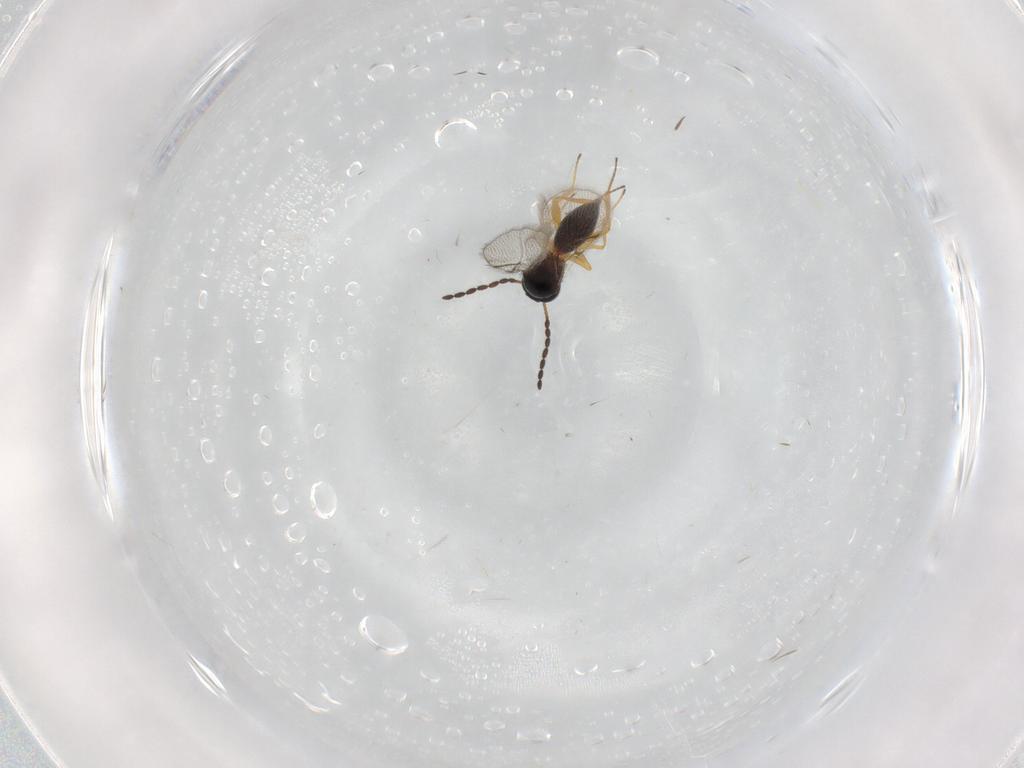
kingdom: Animalia
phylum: Arthropoda
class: Insecta
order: Hymenoptera
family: Figitidae
